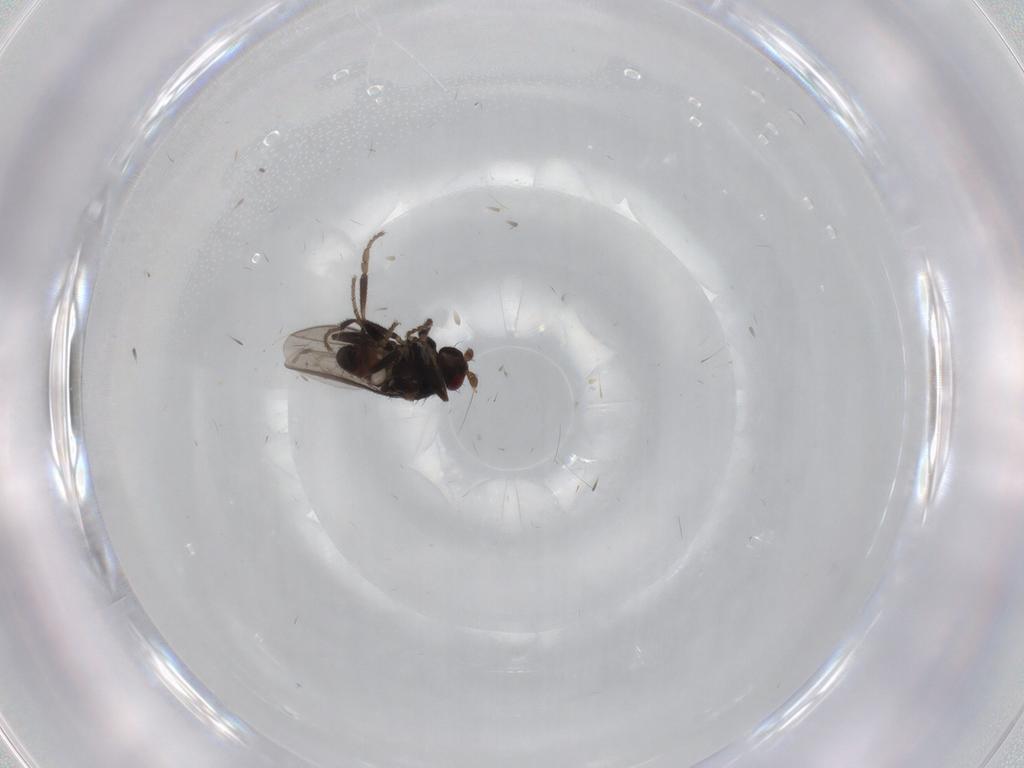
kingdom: Animalia
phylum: Arthropoda
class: Insecta
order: Diptera
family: Sphaeroceridae
